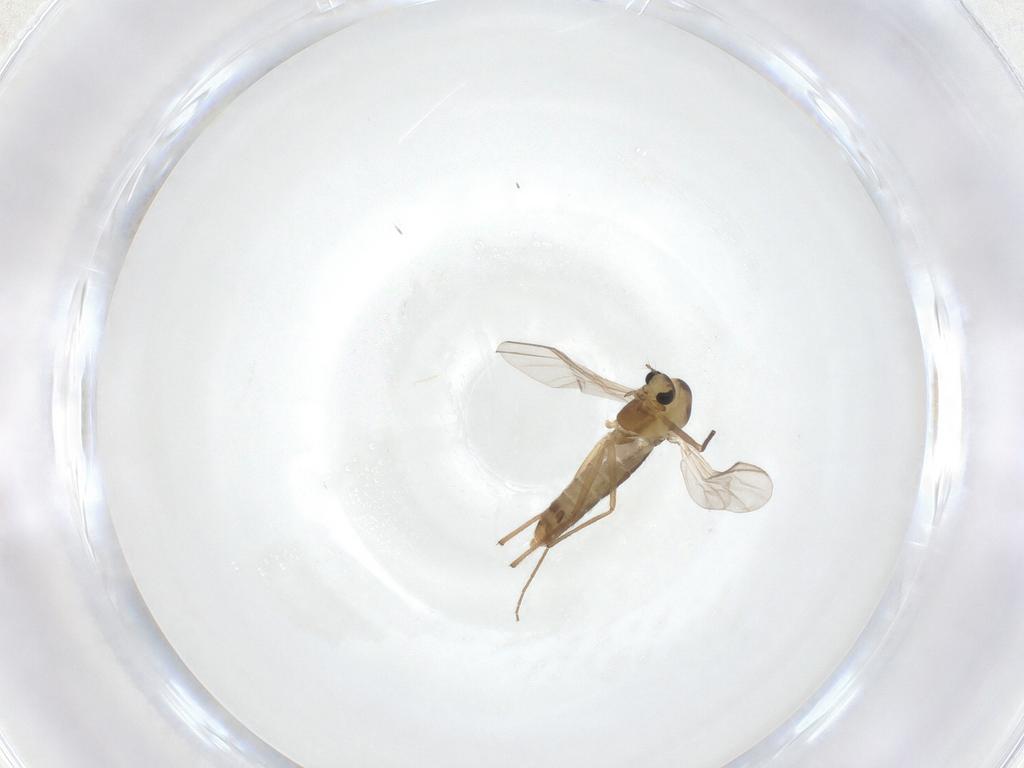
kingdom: Animalia
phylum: Arthropoda
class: Insecta
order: Diptera
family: Chironomidae
